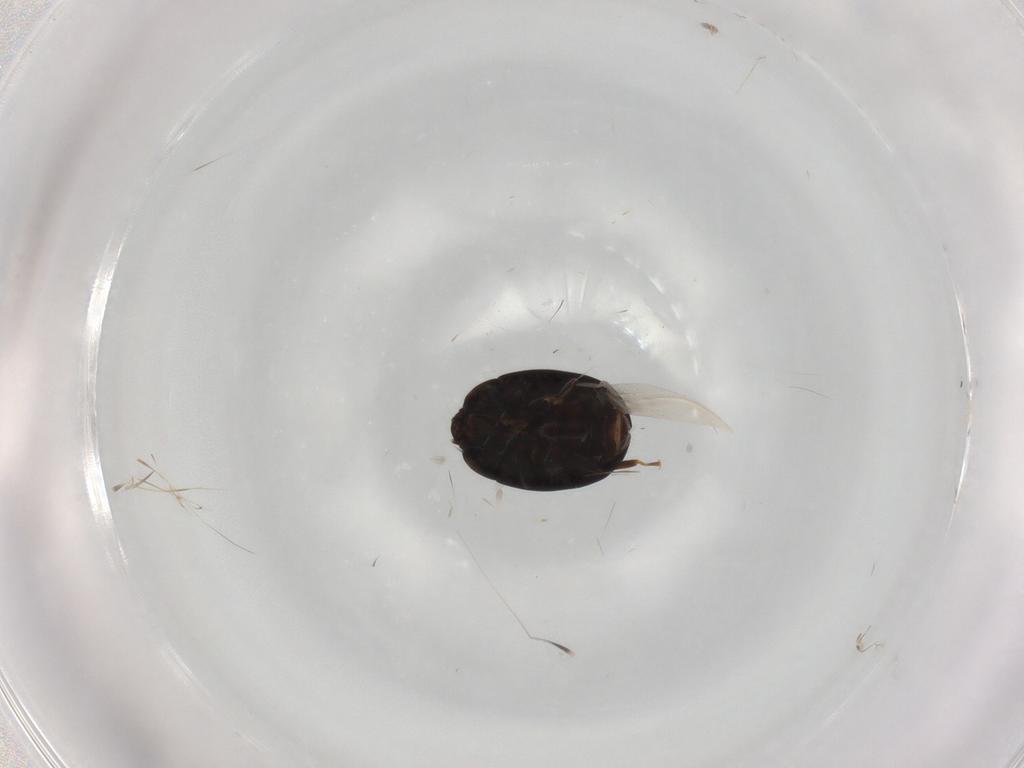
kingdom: Animalia
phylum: Arthropoda
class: Insecta
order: Coleoptera
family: Discolomatidae
